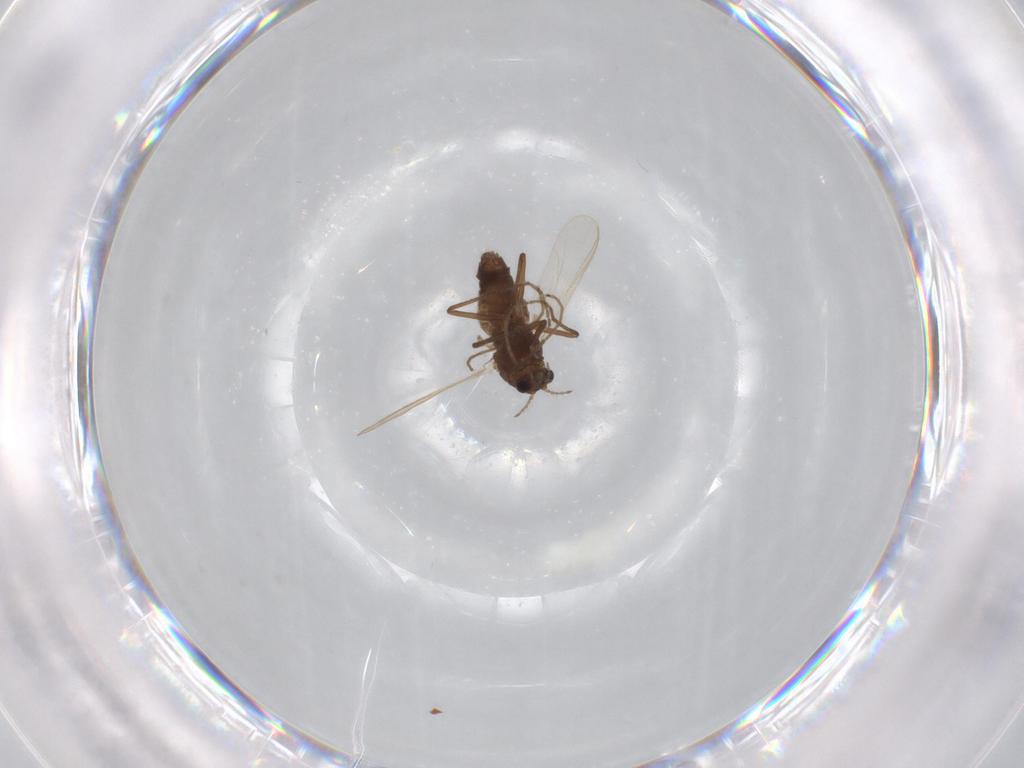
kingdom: Animalia
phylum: Arthropoda
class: Insecta
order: Diptera
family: Chironomidae
